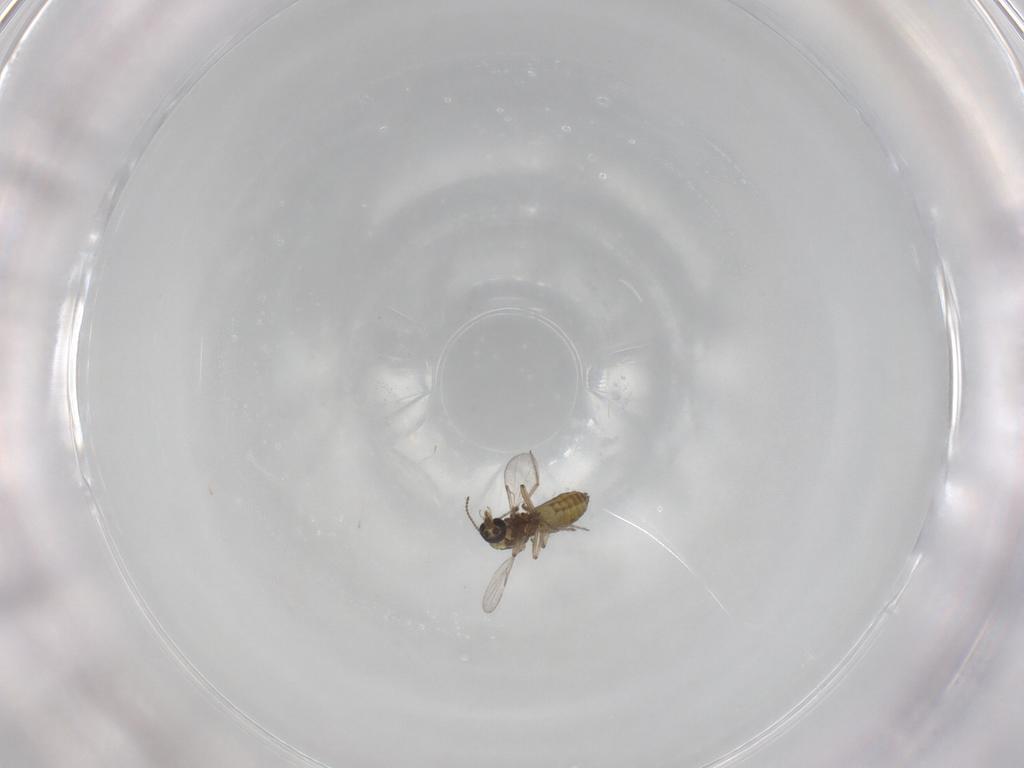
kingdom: Animalia
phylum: Arthropoda
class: Insecta
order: Diptera
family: Ceratopogonidae
